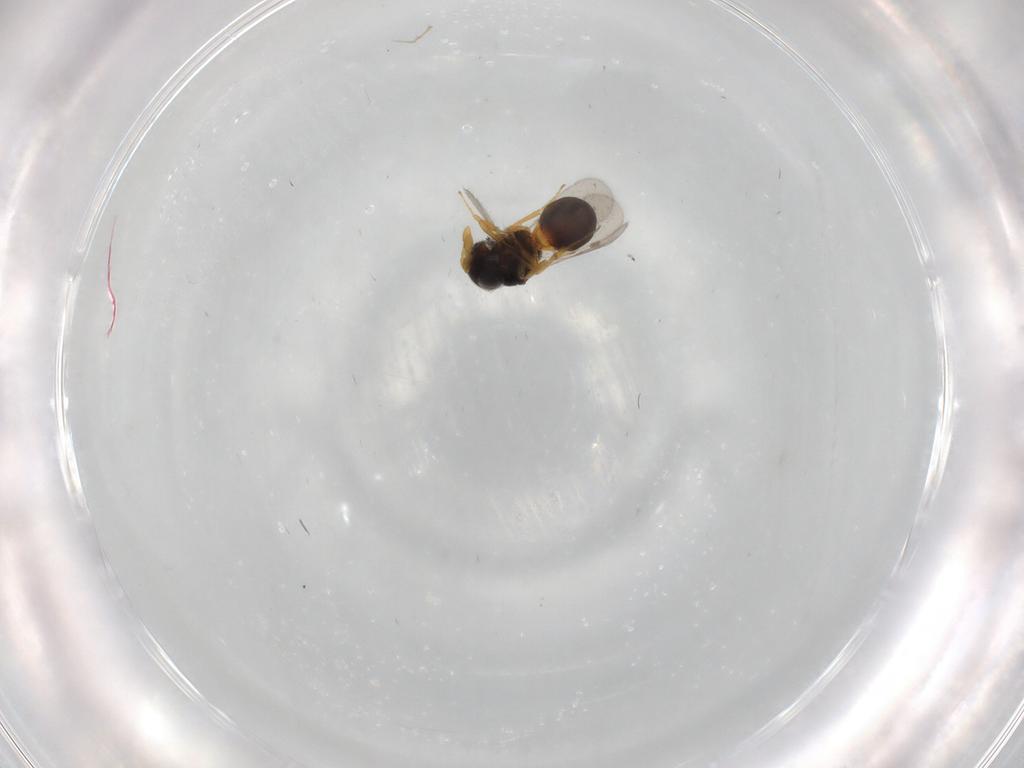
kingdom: Animalia
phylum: Arthropoda
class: Insecta
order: Hymenoptera
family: Scelionidae
